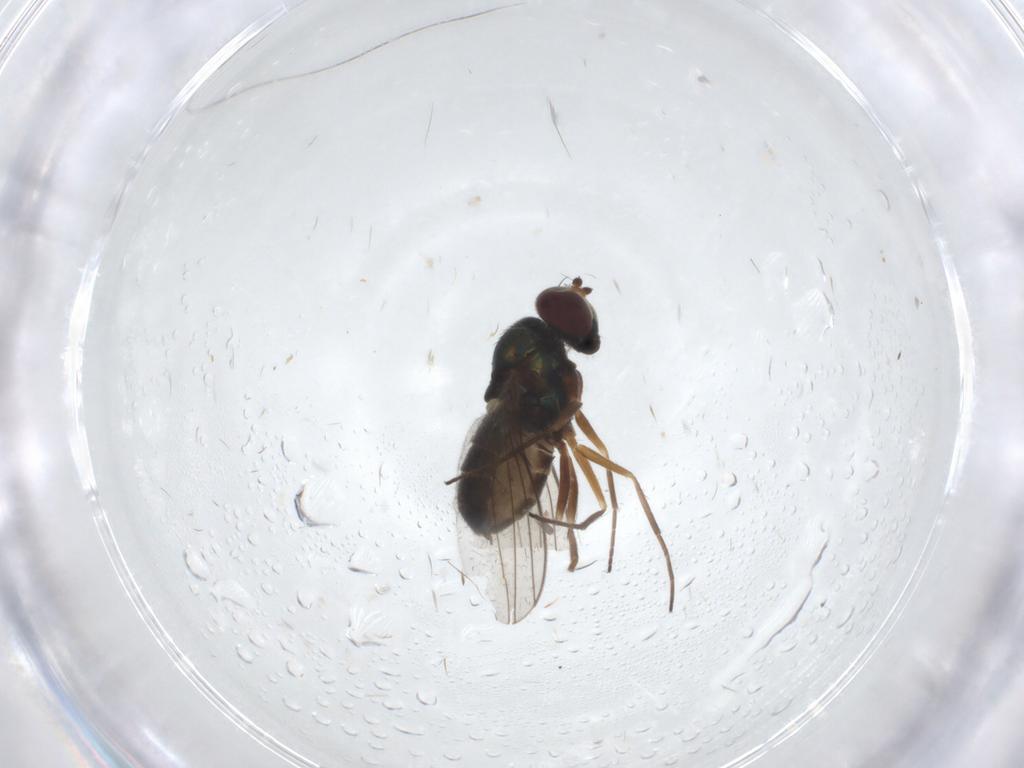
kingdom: Animalia
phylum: Arthropoda
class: Insecta
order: Diptera
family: Dolichopodidae
